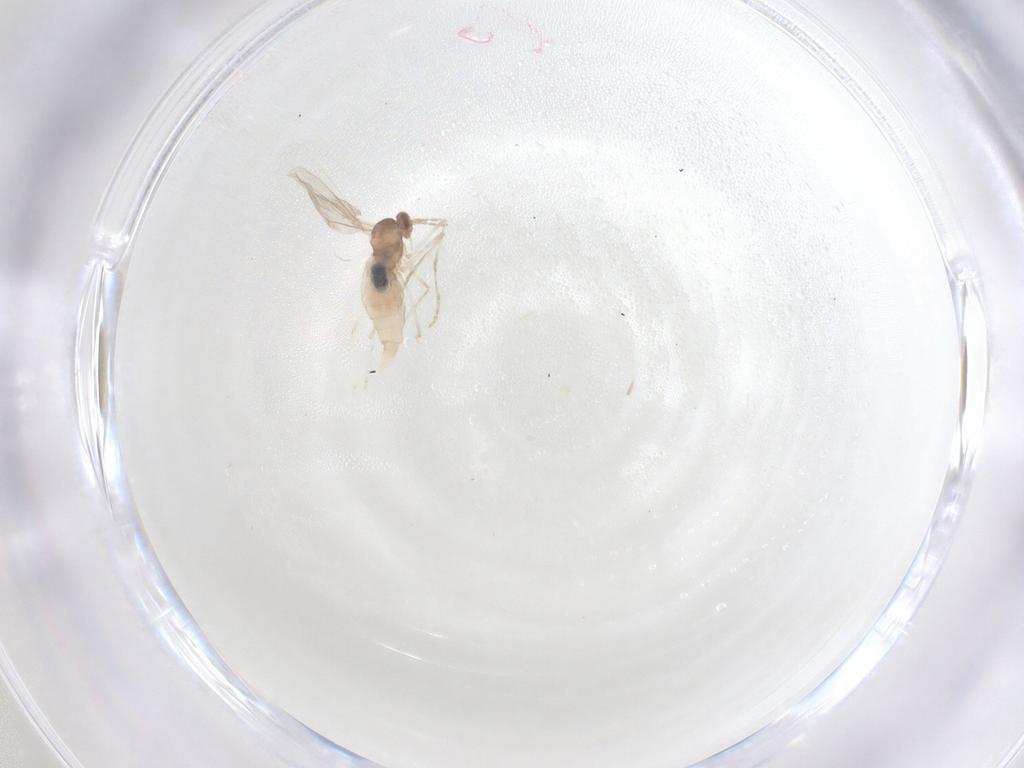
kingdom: Animalia
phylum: Arthropoda
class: Insecta
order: Diptera
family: Cecidomyiidae
